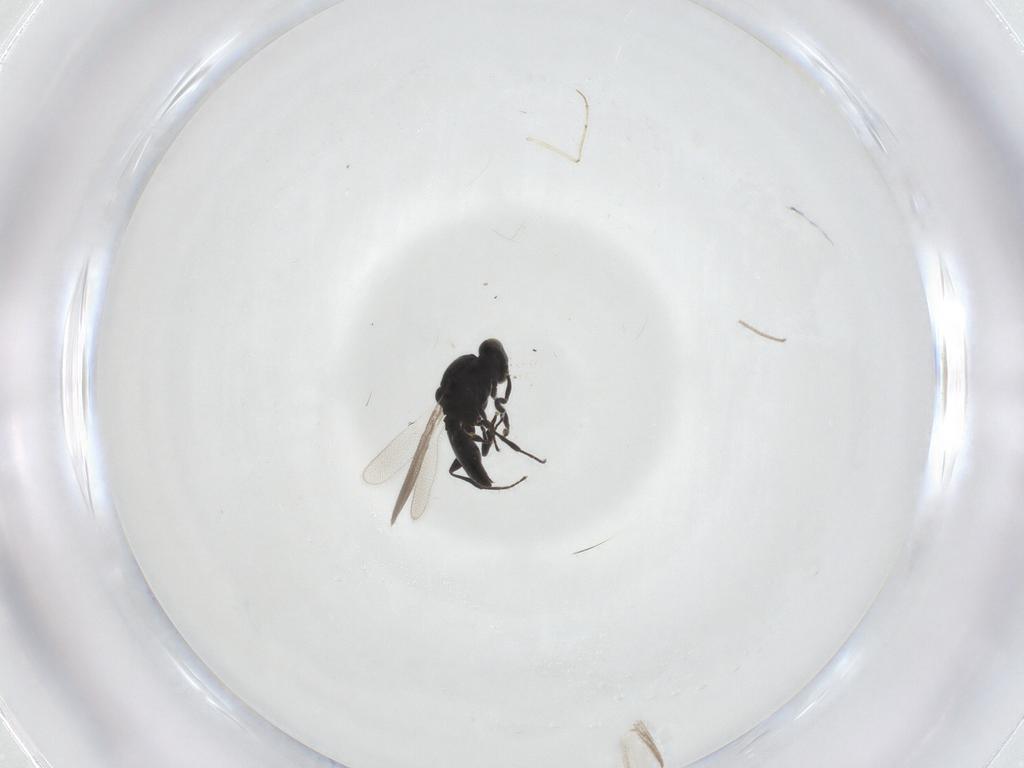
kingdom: Animalia
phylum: Arthropoda
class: Insecta
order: Hymenoptera
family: Platygastridae
